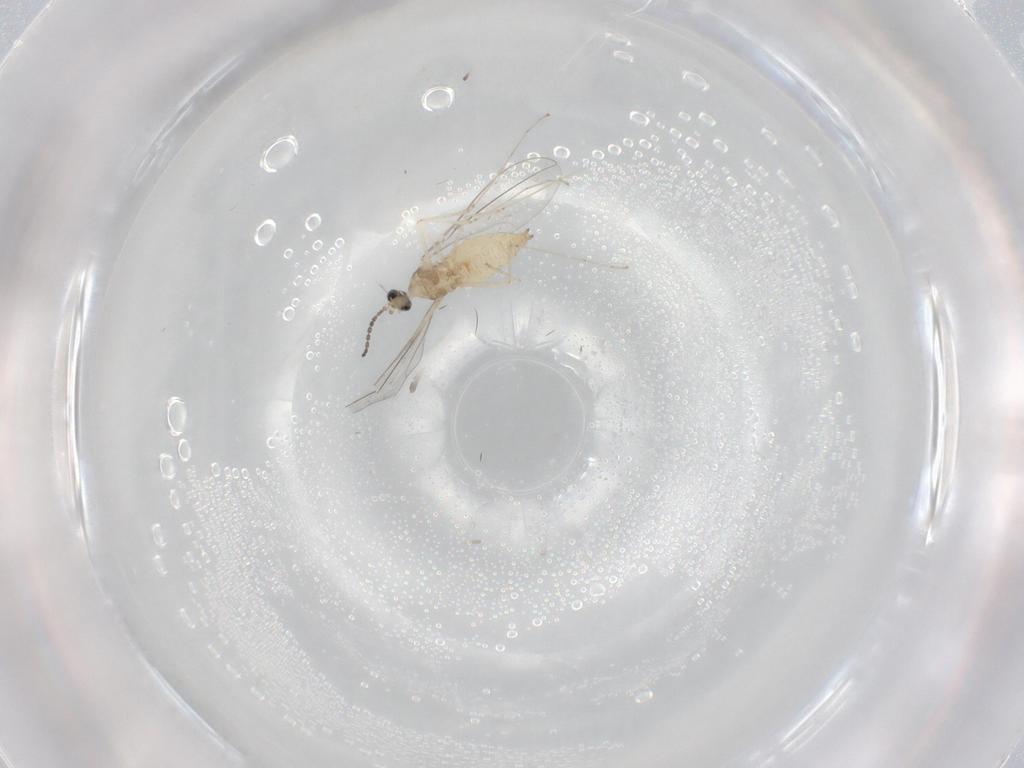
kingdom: Animalia
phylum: Arthropoda
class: Insecta
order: Diptera
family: Cecidomyiidae
